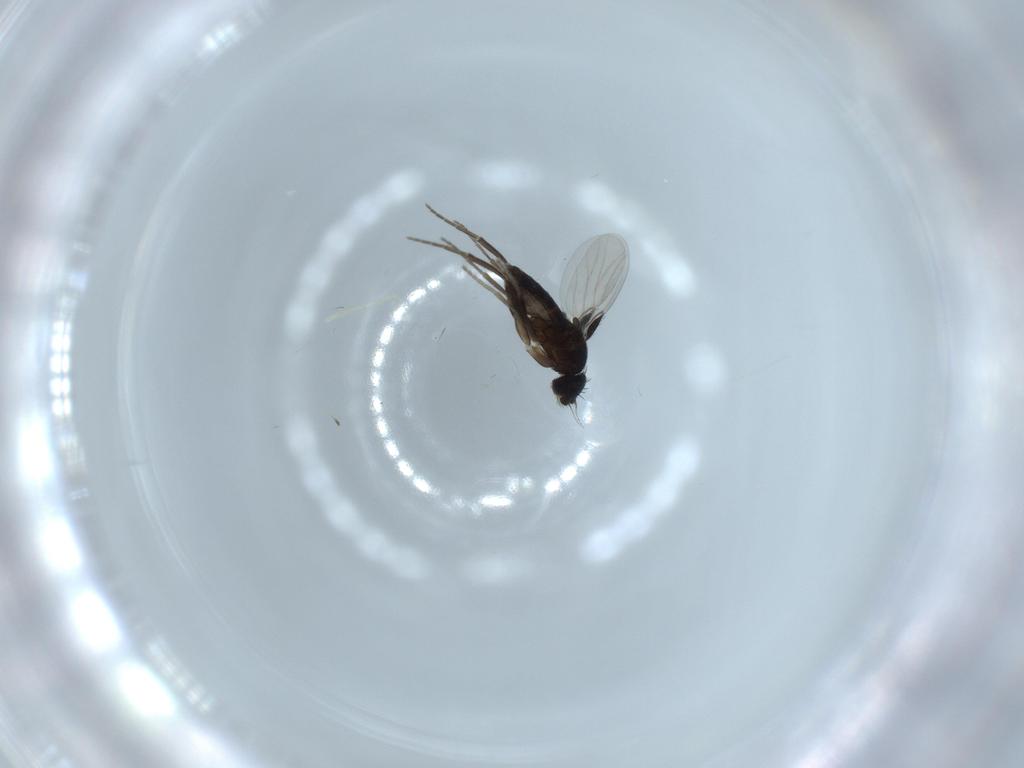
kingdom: Animalia
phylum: Arthropoda
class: Insecta
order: Diptera
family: Phoridae
